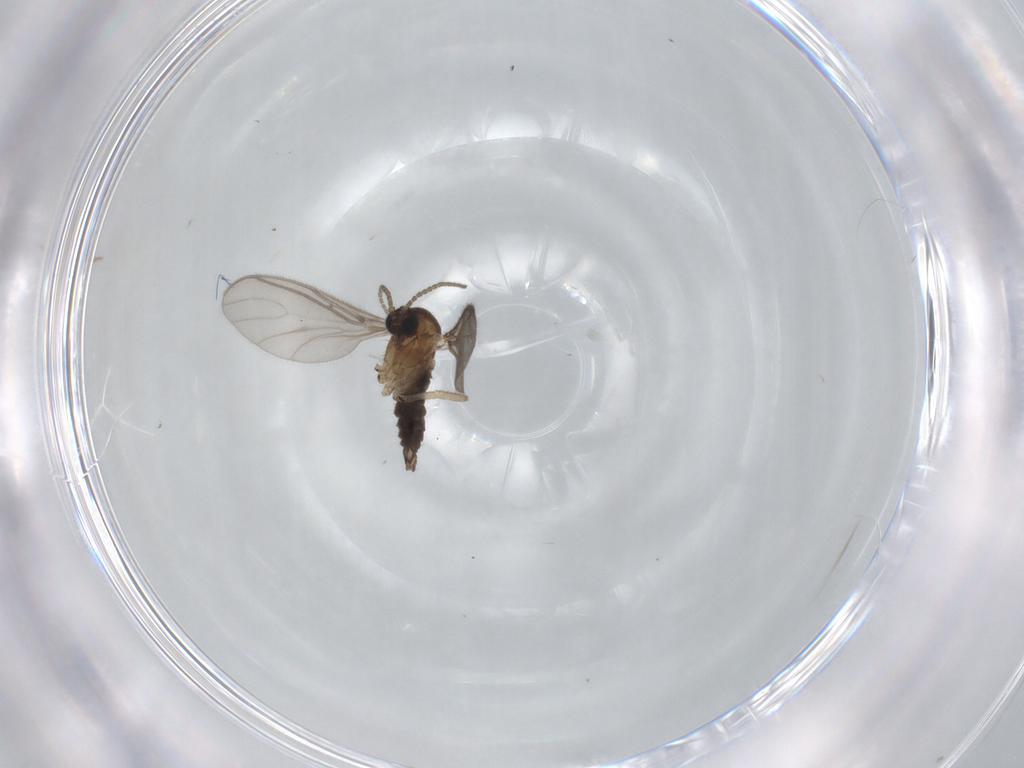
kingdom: Animalia
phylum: Arthropoda
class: Insecta
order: Diptera
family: Sciaridae
